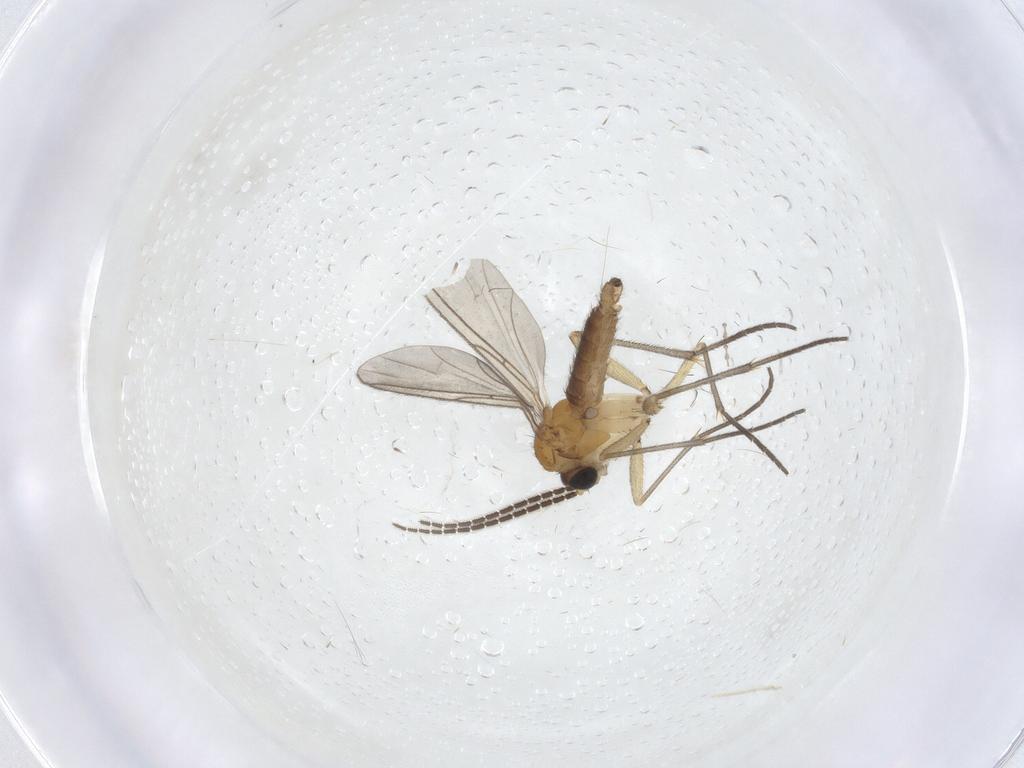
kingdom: Animalia
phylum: Arthropoda
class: Insecta
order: Diptera
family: Sciaridae
